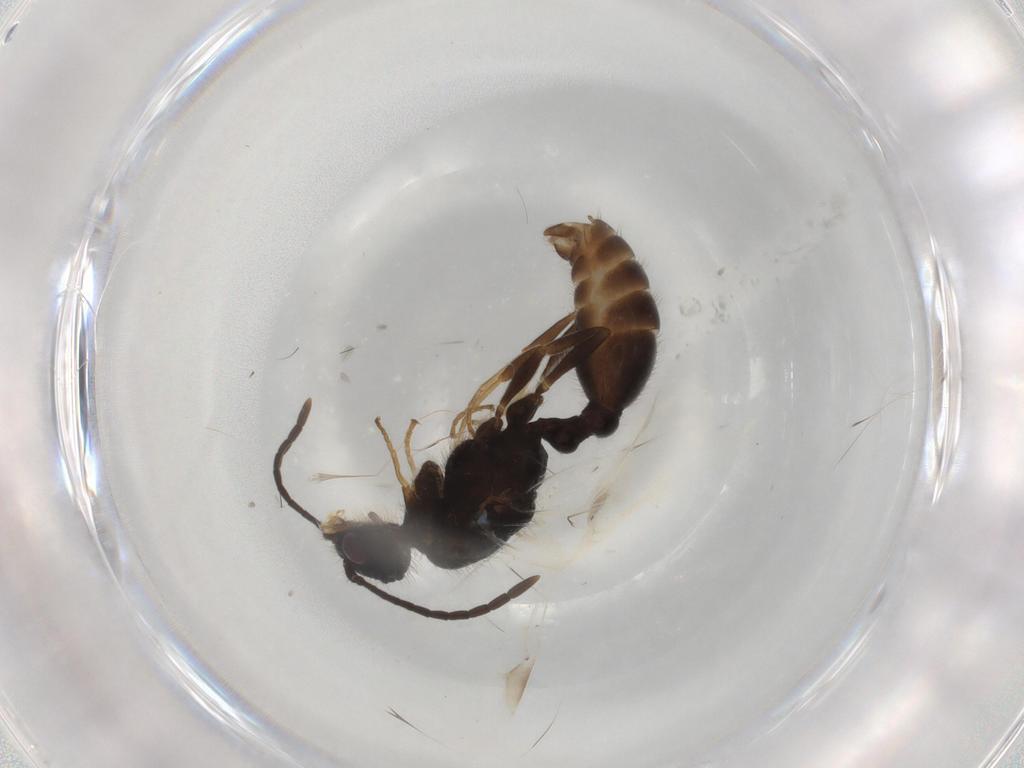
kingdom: Animalia
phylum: Arthropoda
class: Insecta
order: Hymenoptera
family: Formicidae
